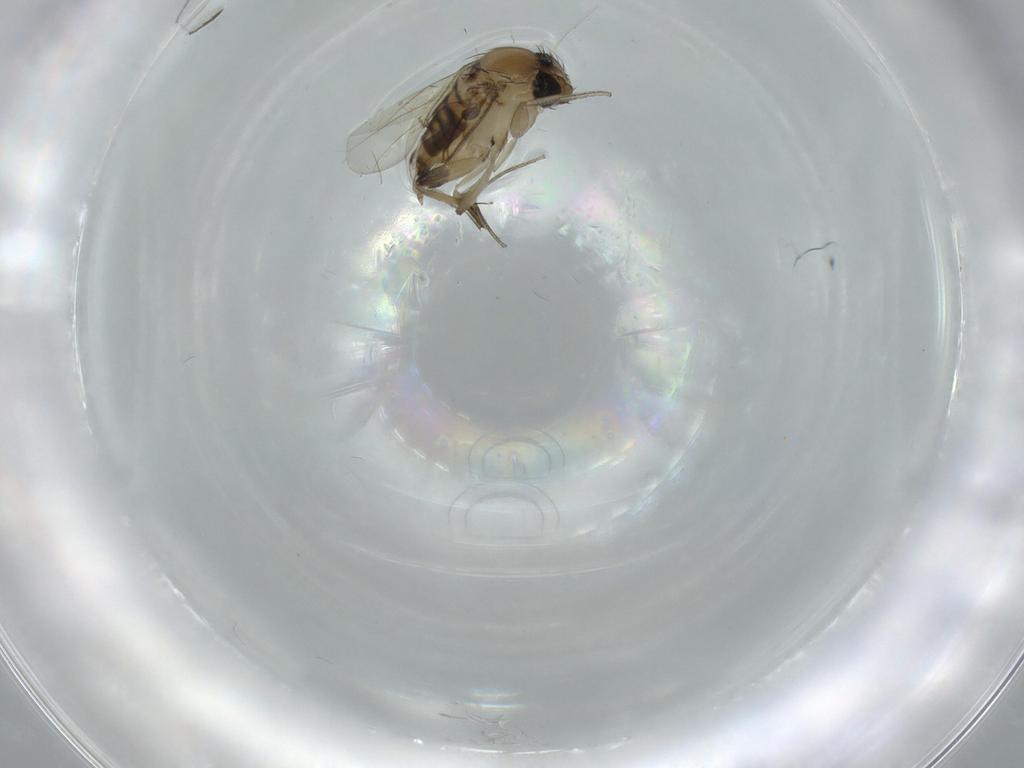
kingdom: Animalia
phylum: Arthropoda
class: Insecta
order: Diptera
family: Phoridae
